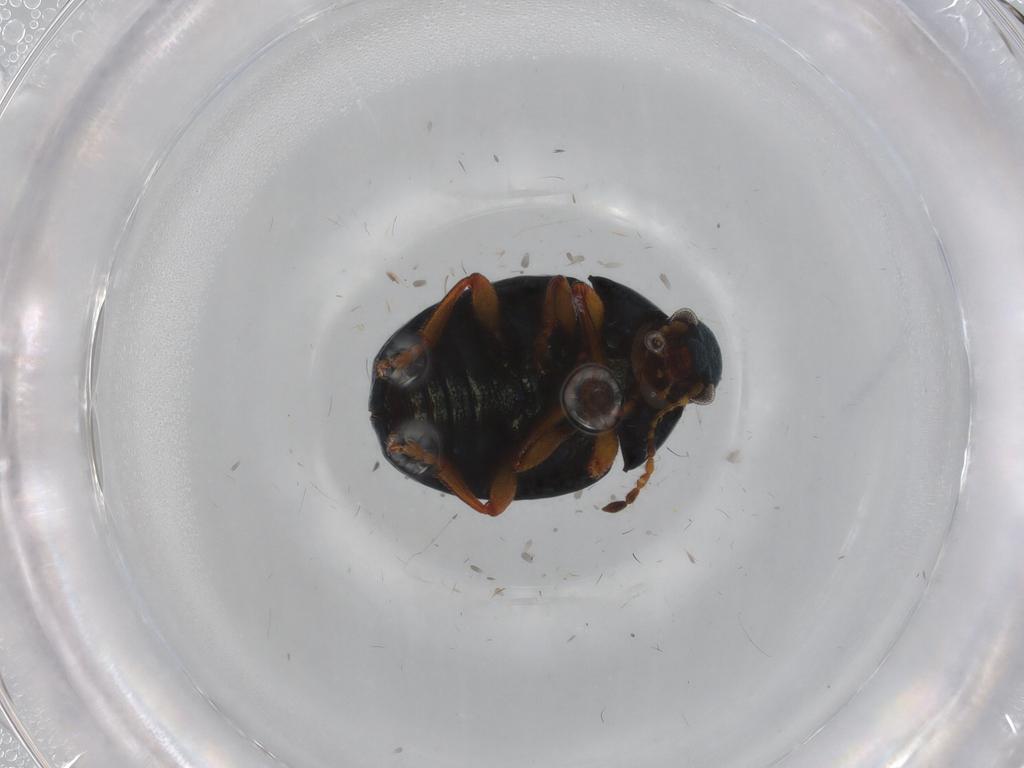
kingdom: Animalia
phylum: Arthropoda
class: Insecta
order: Coleoptera
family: Chrysomelidae
